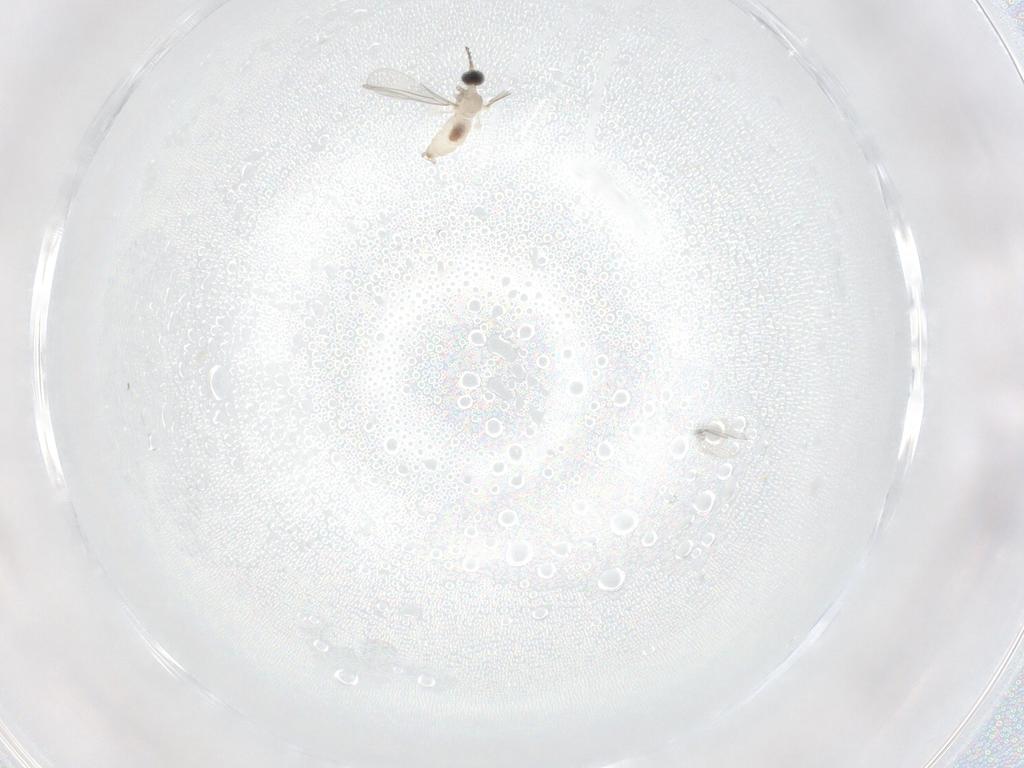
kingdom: Animalia
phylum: Arthropoda
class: Insecta
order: Diptera
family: Cecidomyiidae
